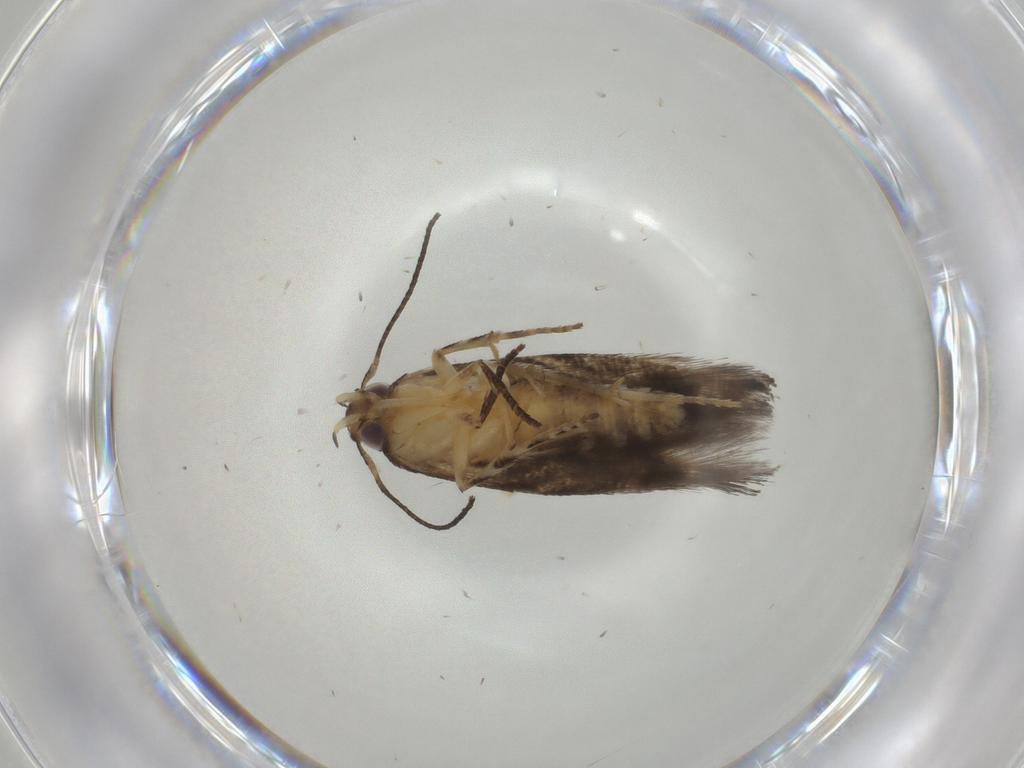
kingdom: Animalia
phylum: Arthropoda
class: Insecta
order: Lepidoptera
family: Elachistidae
